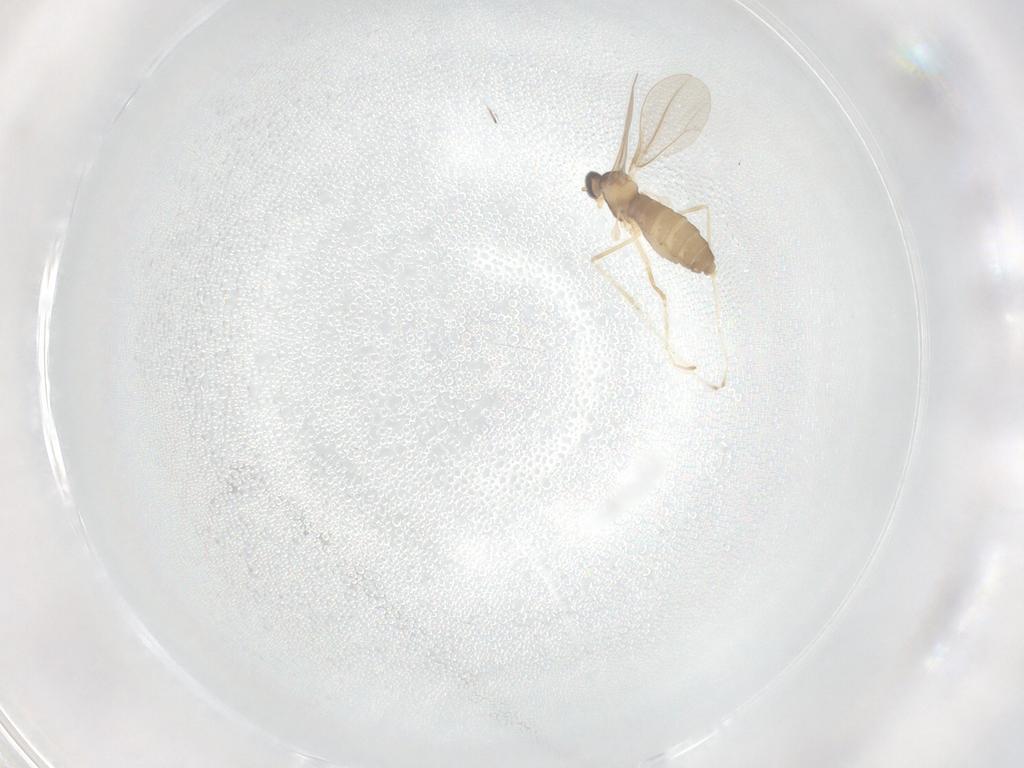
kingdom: Animalia
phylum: Arthropoda
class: Insecta
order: Diptera
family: Cecidomyiidae
